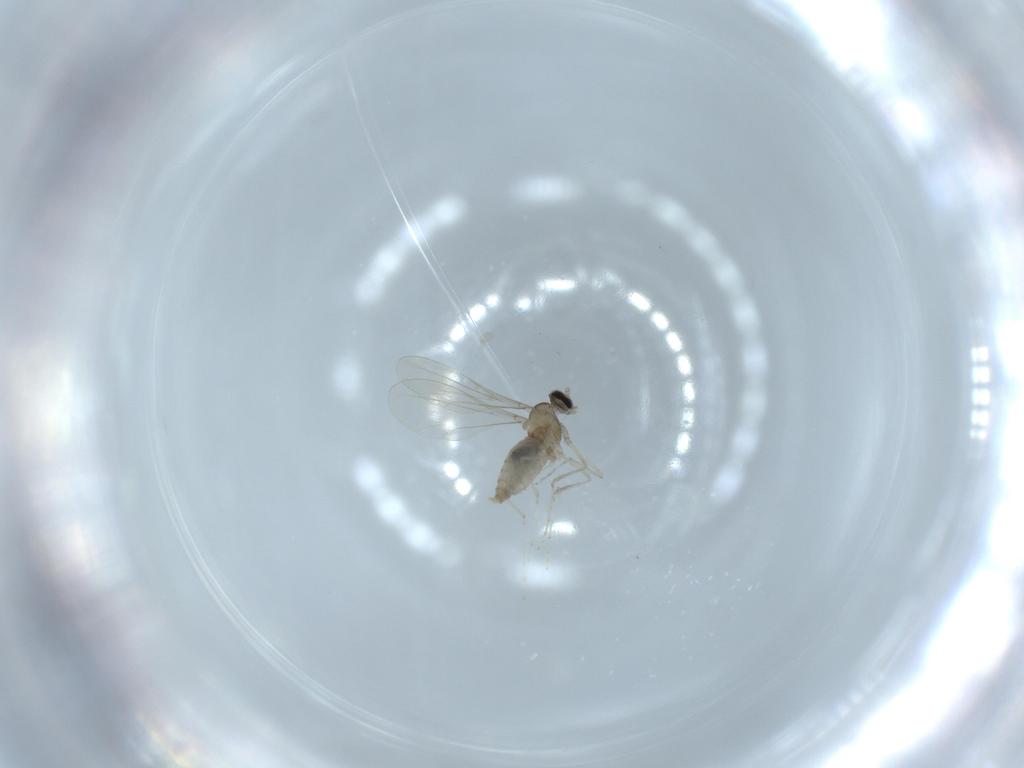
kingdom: Animalia
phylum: Arthropoda
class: Insecta
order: Diptera
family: Cecidomyiidae
